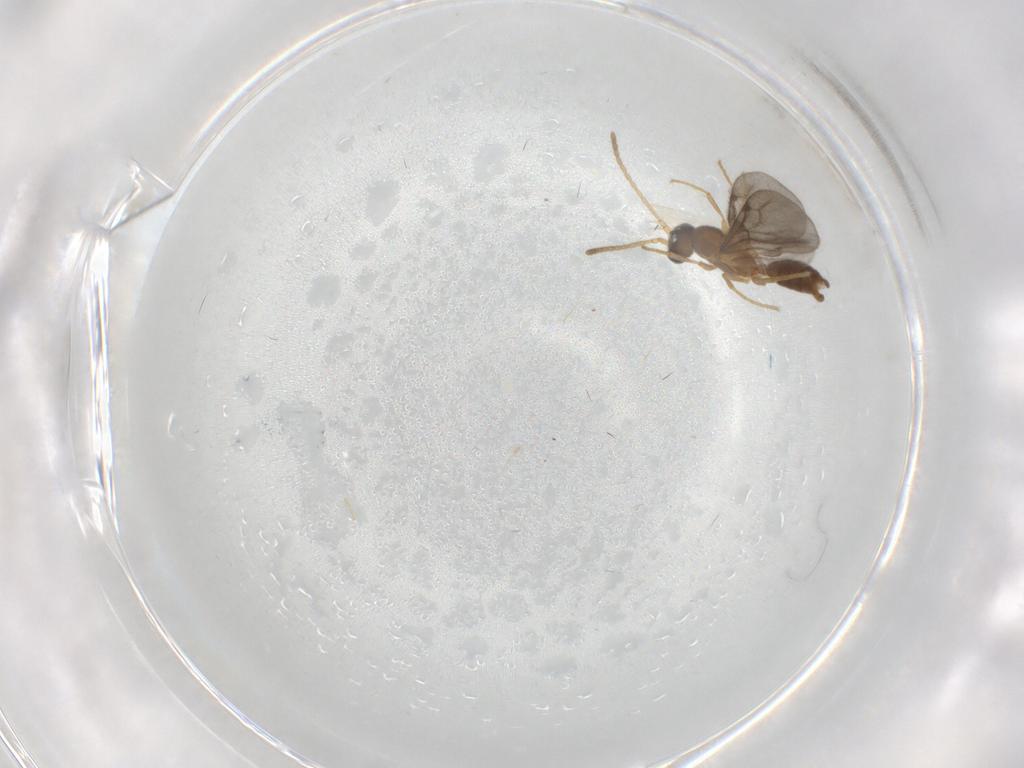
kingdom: Animalia
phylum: Arthropoda
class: Insecta
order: Hymenoptera
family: Formicidae
